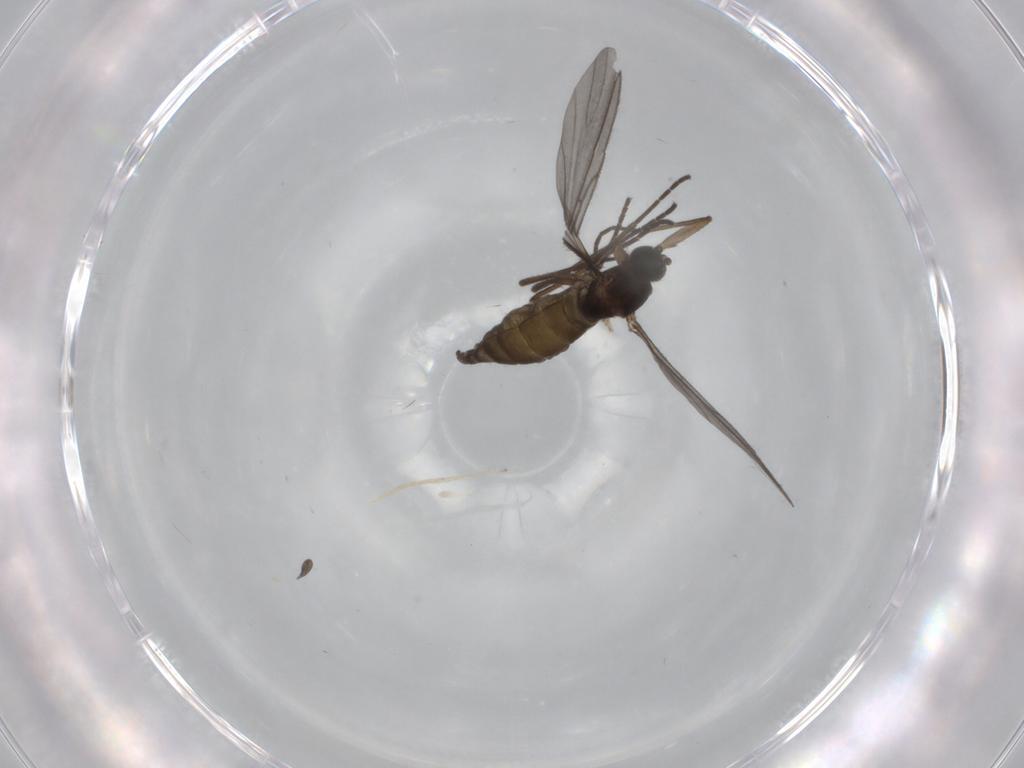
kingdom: Animalia
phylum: Arthropoda
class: Insecta
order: Diptera
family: Sciaridae
